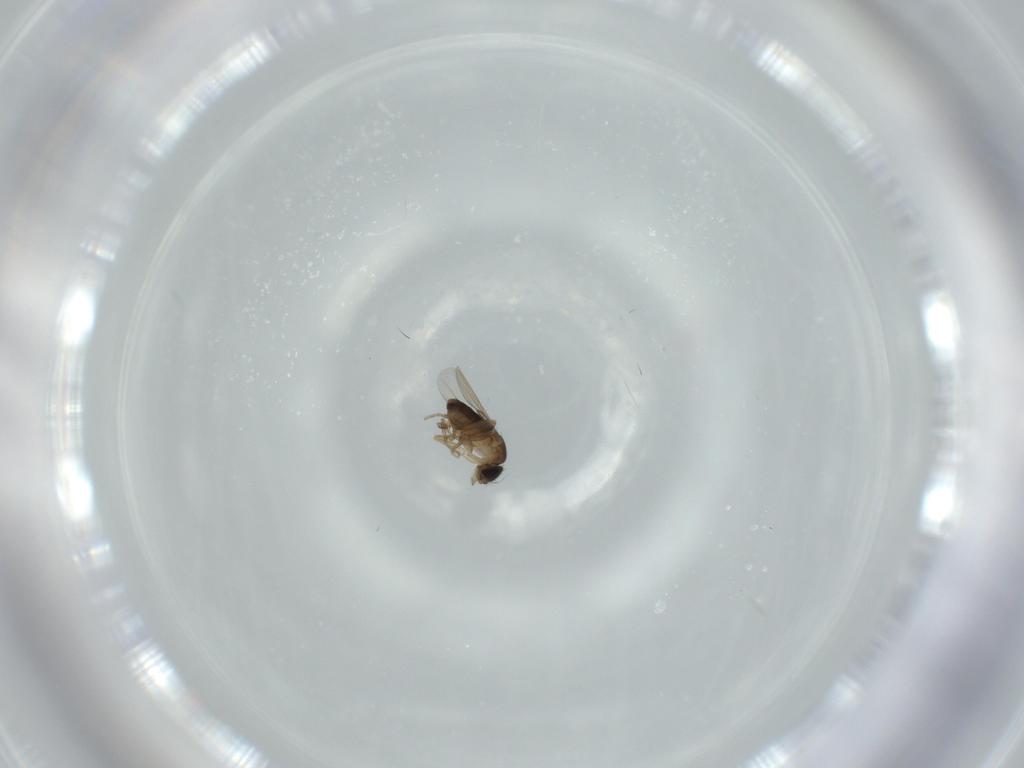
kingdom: Animalia
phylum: Arthropoda
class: Insecta
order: Diptera
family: Phoridae
